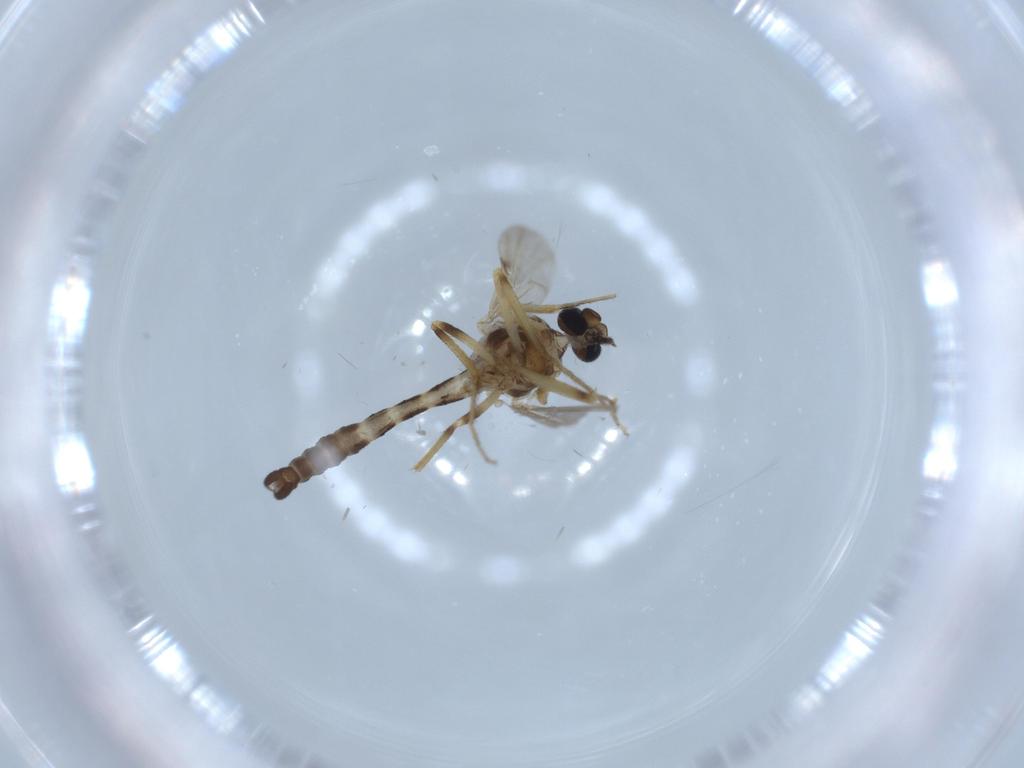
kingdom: Animalia
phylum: Arthropoda
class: Insecta
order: Diptera
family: Ceratopogonidae
